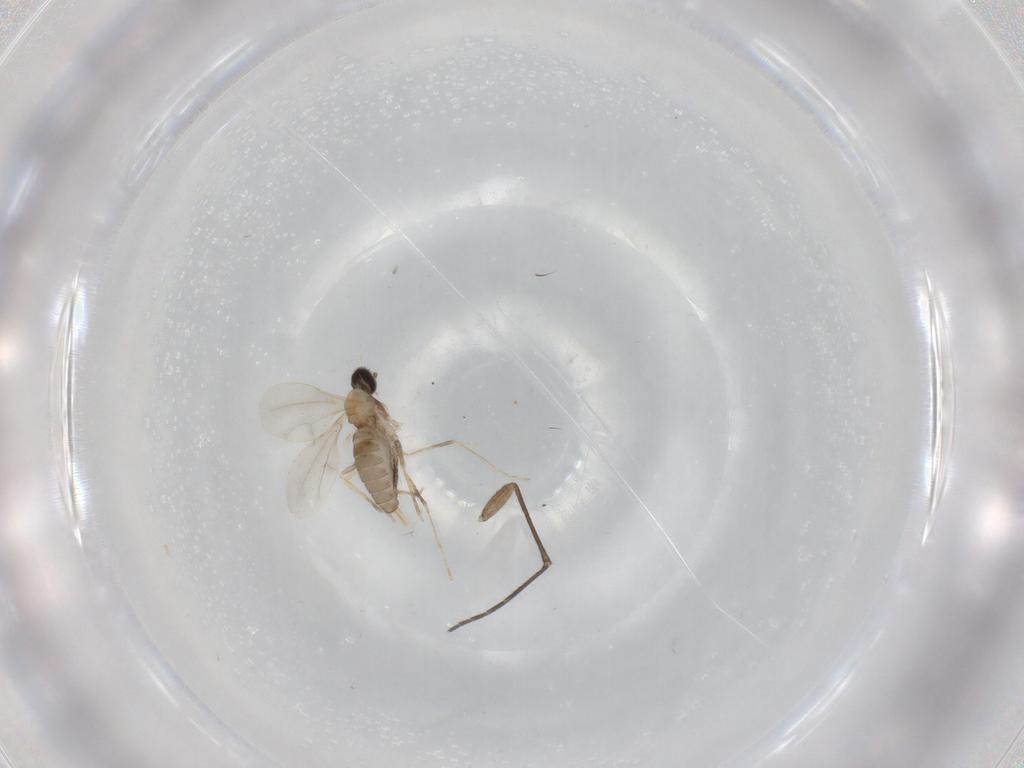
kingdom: Animalia
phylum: Arthropoda
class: Insecta
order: Diptera
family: Cecidomyiidae
